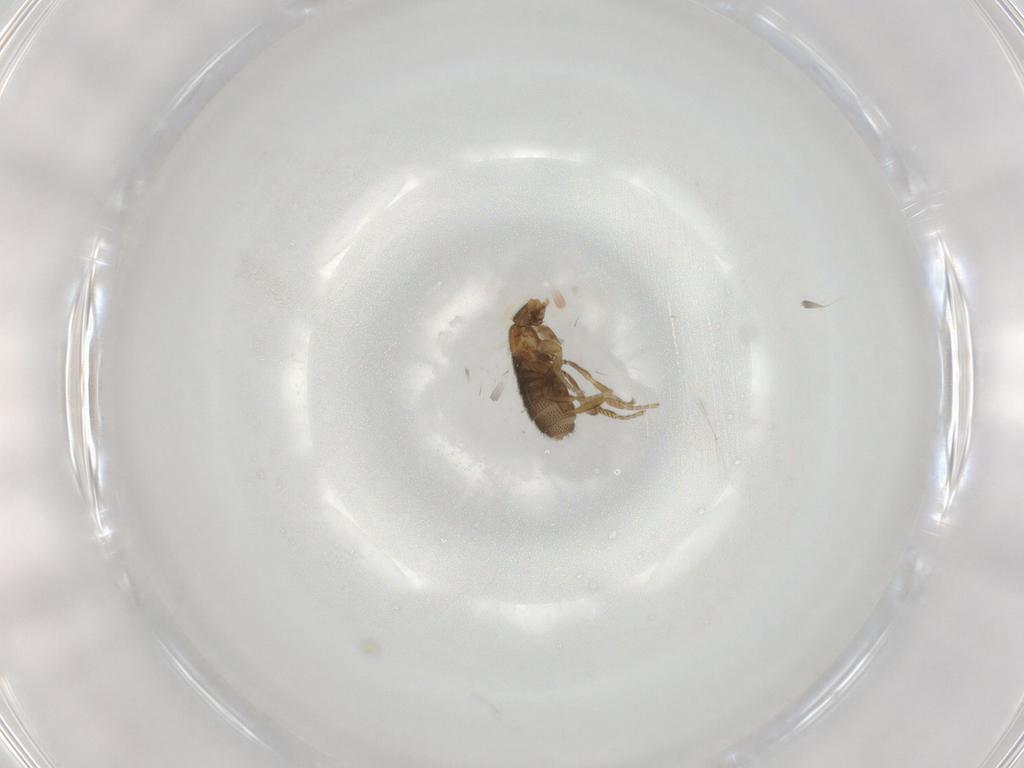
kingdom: Animalia
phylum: Arthropoda
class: Insecta
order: Diptera
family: Phoridae
